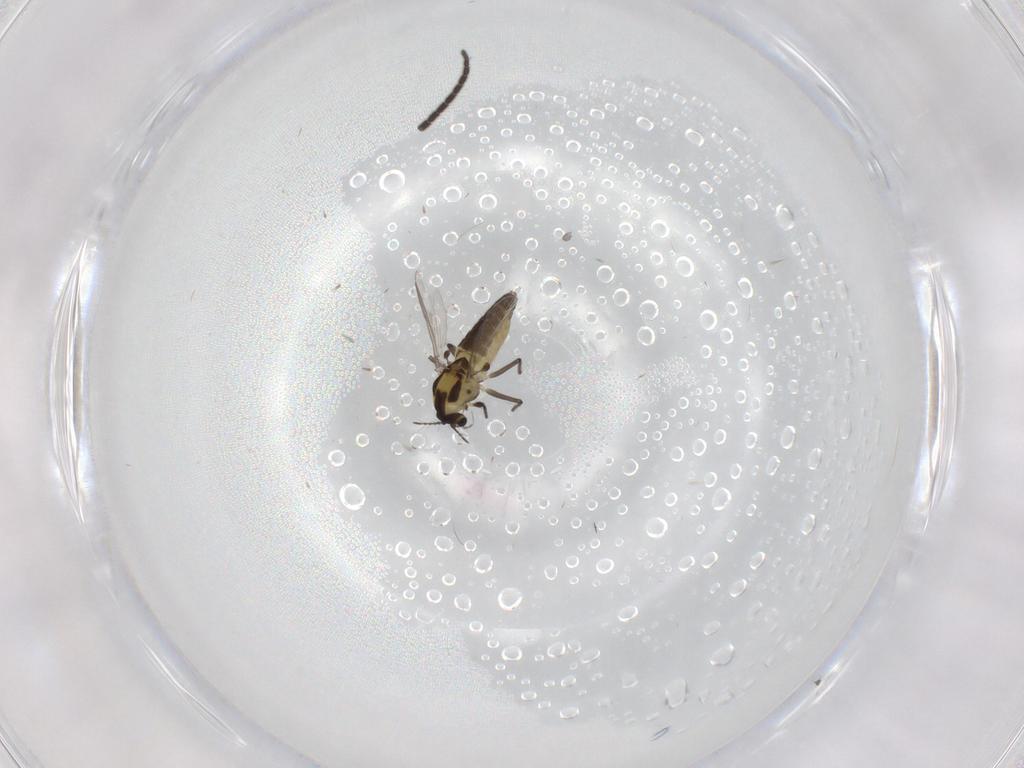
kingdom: Animalia
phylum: Arthropoda
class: Insecta
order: Diptera
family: Chironomidae
